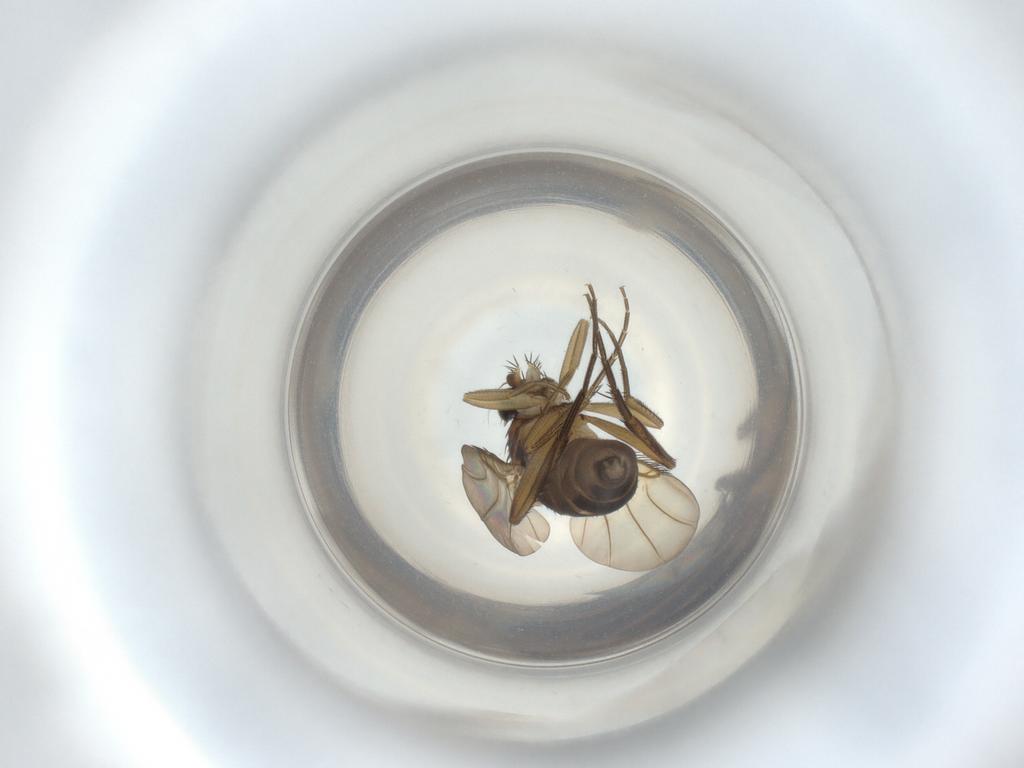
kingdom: Animalia
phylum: Arthropoda
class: Insecta
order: Diptera
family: Phoridae
